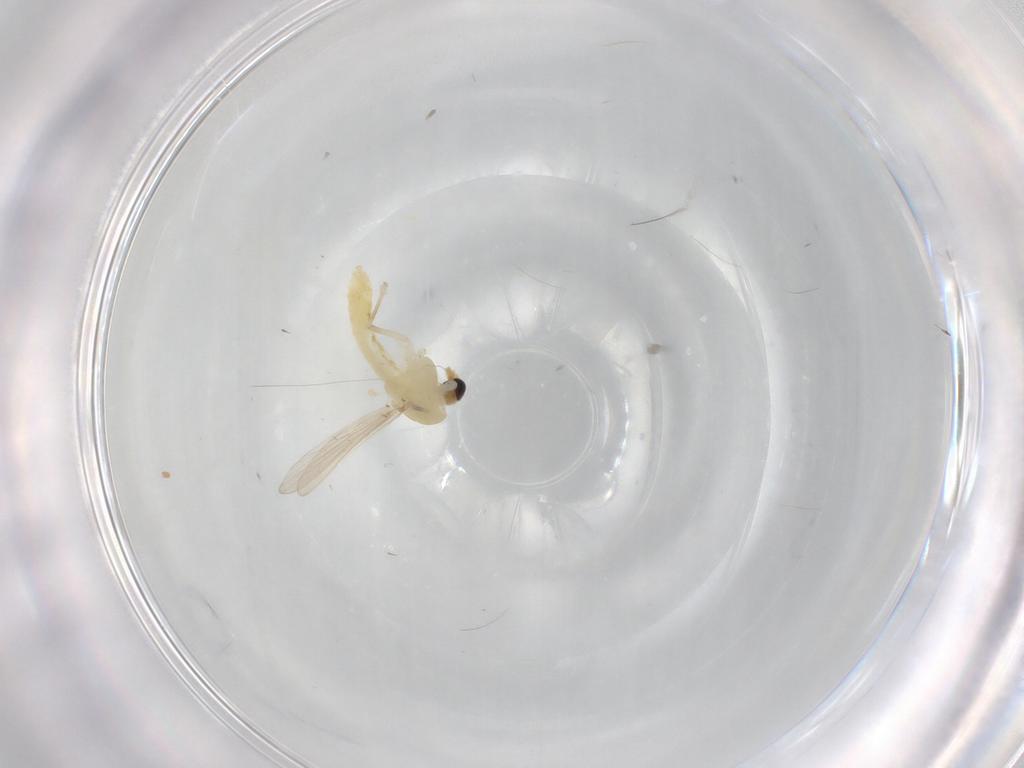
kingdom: Animalia
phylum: Arthropoda
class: Insecta
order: Diptera
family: Chironomidae
